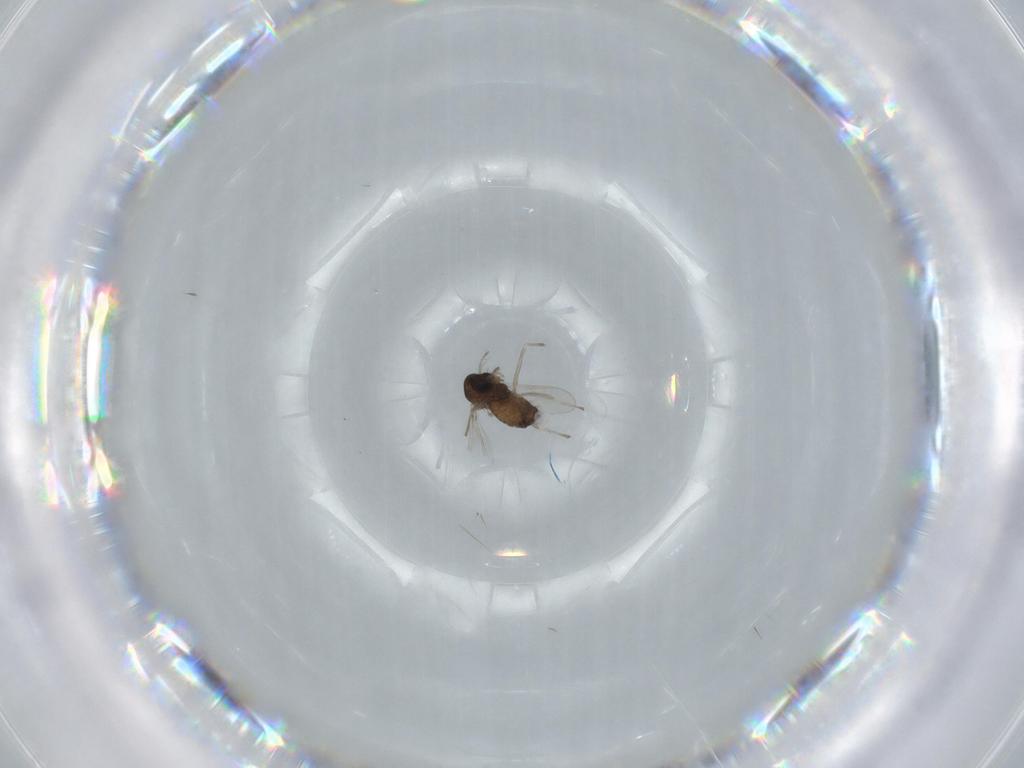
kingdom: Animalia
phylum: Arthropoda
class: Insecta
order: Diptera
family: Chironomidae
